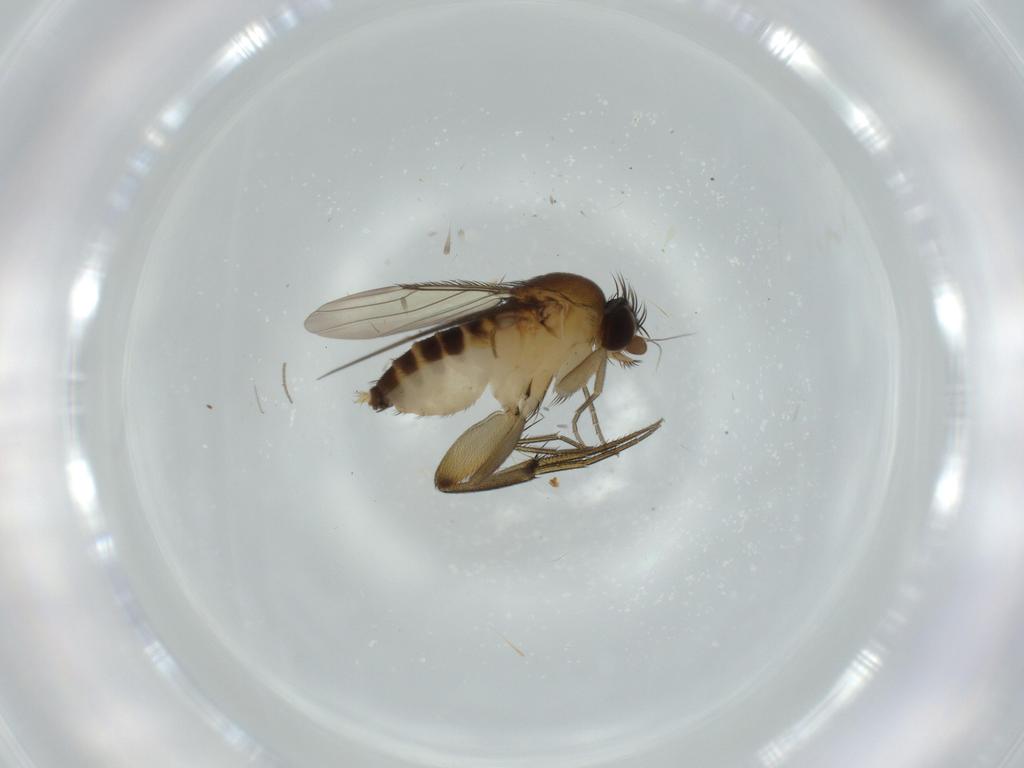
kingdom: Animalia
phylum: Arthropoda
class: Insecta
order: Diptera
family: Phoridae
